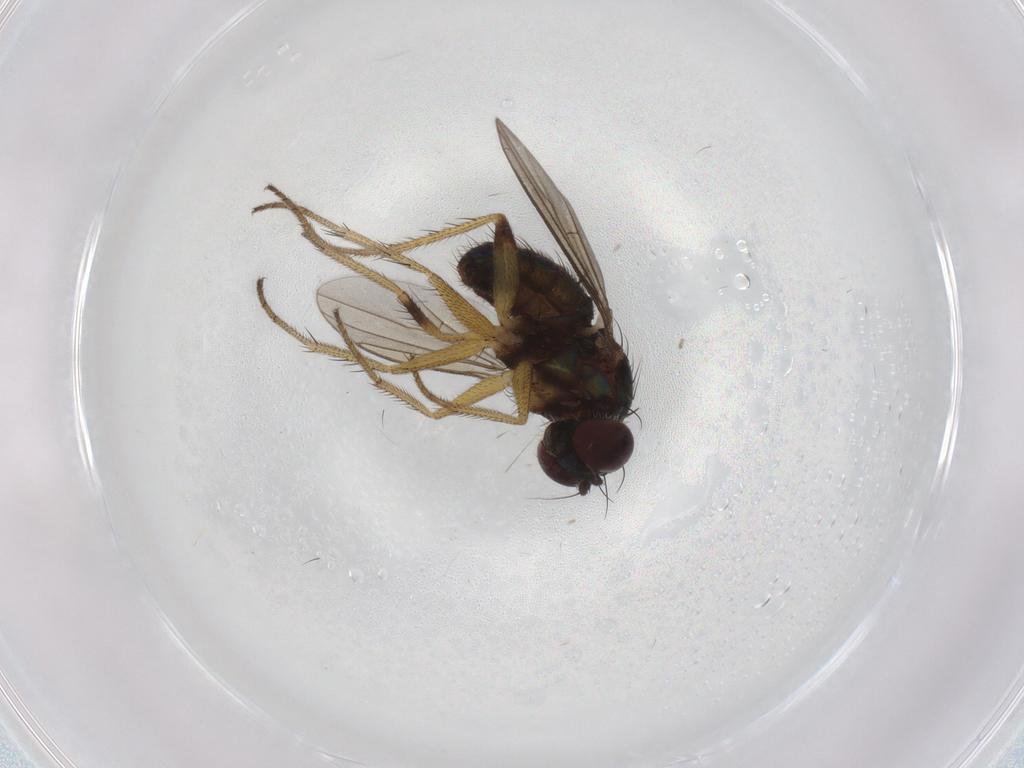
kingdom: Animalia
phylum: Arthropoda
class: Insecta
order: Diptera
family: Dolichopodidae
